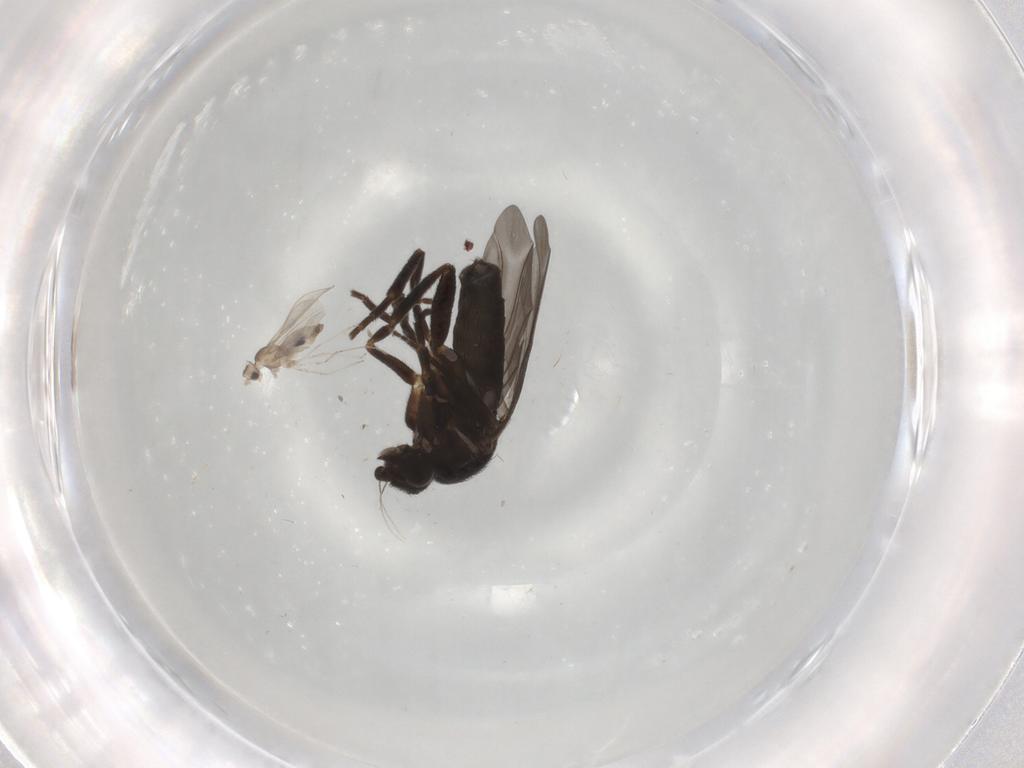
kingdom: Animalia
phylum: Arthropoda
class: Insecta
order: Diptera
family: Phoridae
